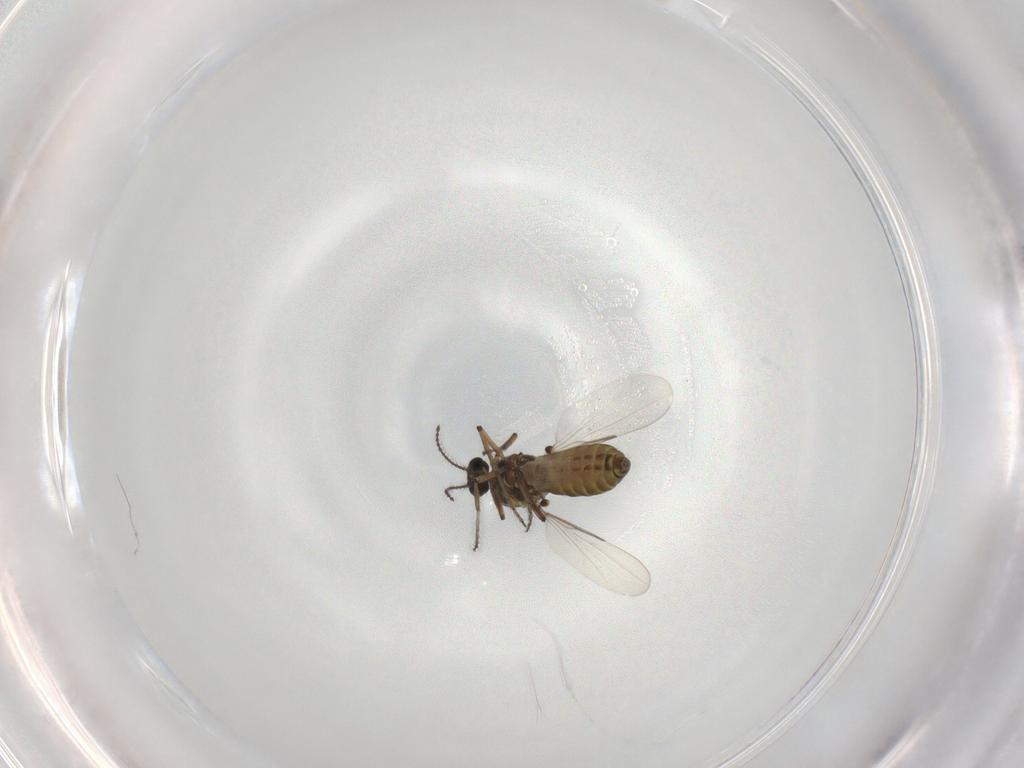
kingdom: Animalia
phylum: Arthropoda
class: Insecta
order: Diptera
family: Ceratopogonidae
